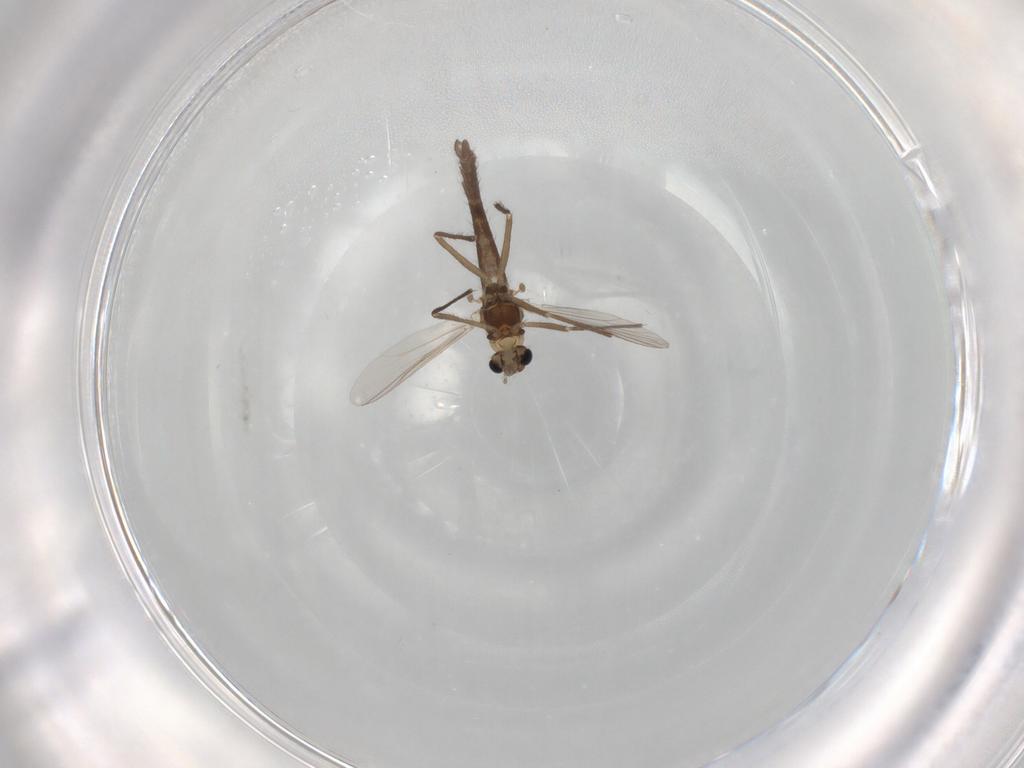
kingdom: Animalia
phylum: Arthropoda
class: Insecta
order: Diptera
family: Chironomidae
